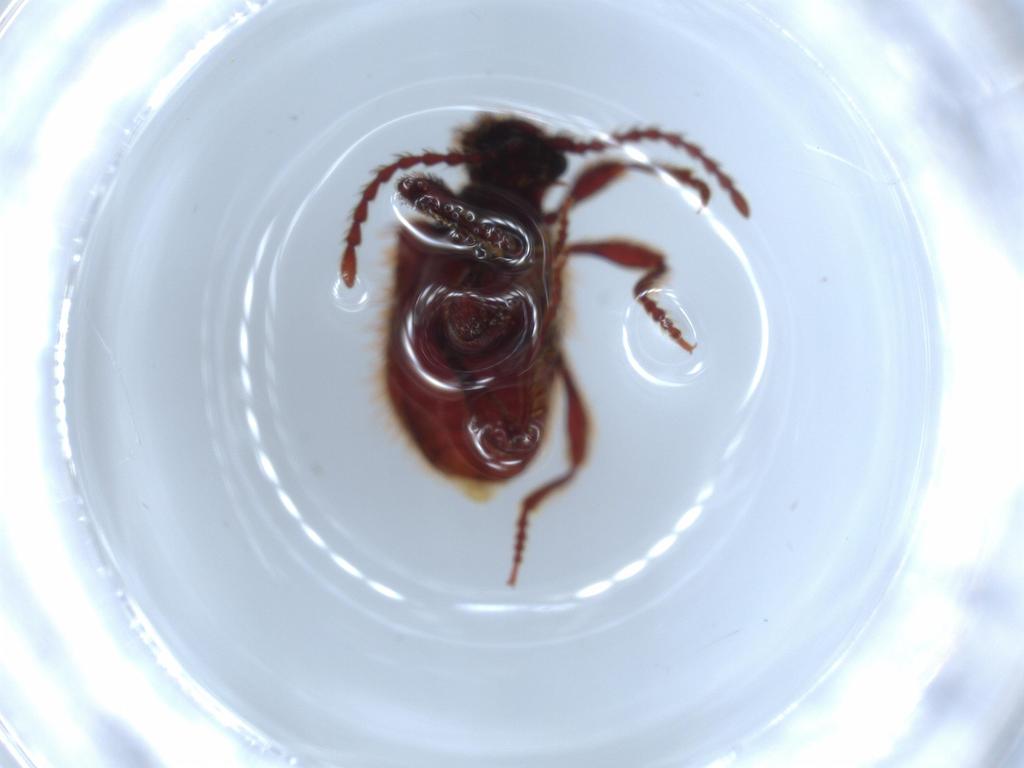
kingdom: Animalia
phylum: Arthropoda
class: Insecta
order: Coleoptera
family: Ptinidae
